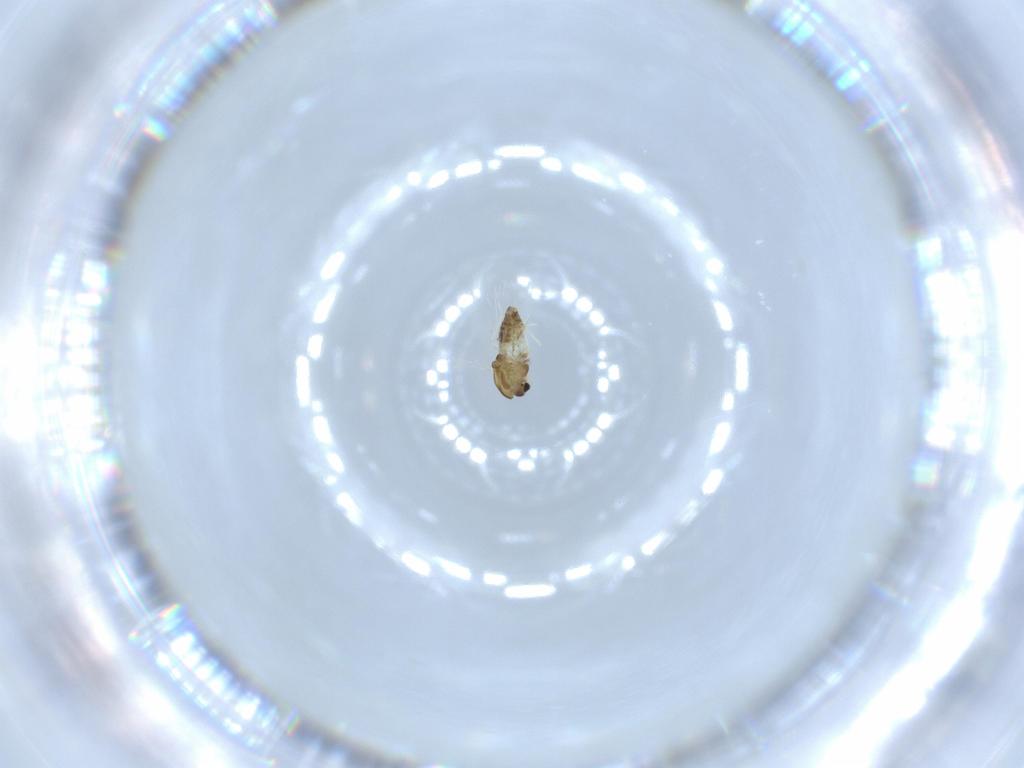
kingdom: Animalia
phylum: Arthropoda
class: Insecta
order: Diptera
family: Chironomidae
